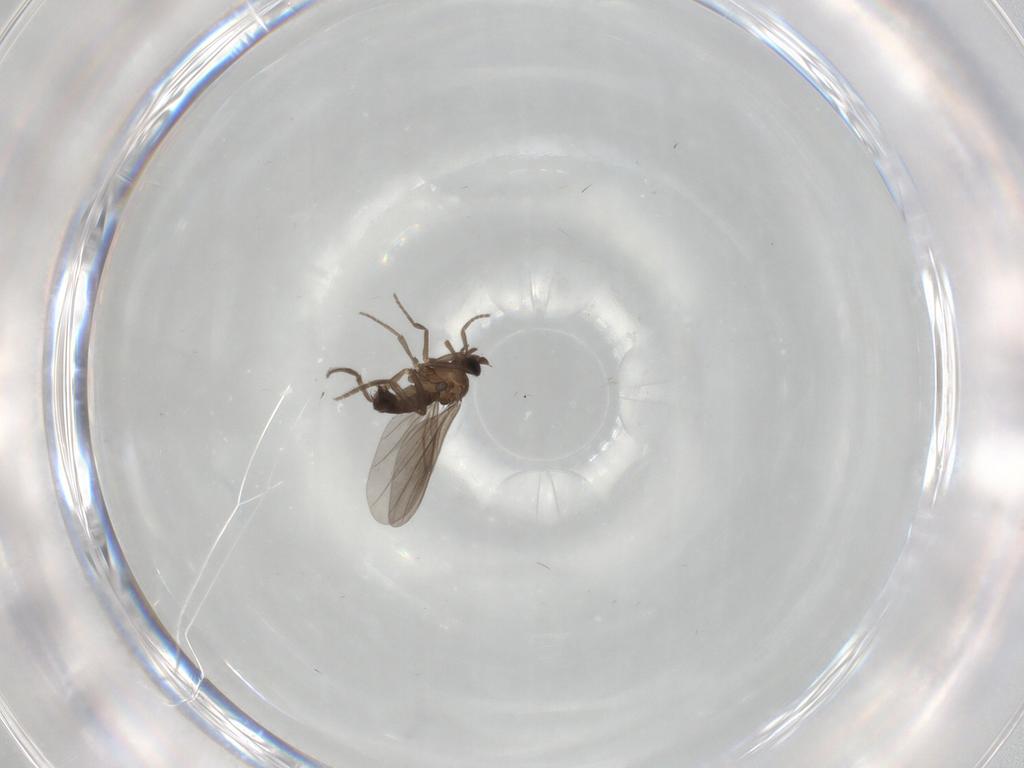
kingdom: Animalia
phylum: Arthropoda
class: Insecta
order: Diptera
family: Phoridae
